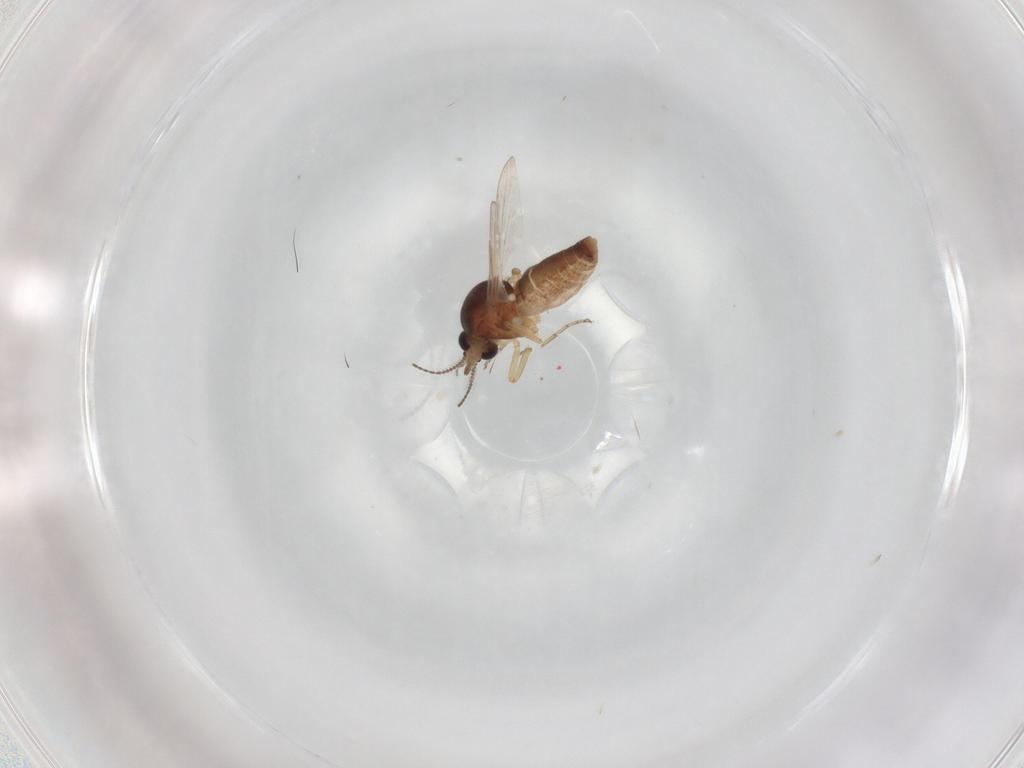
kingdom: Animalia
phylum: Arthropoda
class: Insecta
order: Diptera
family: Ceratopogonidae
